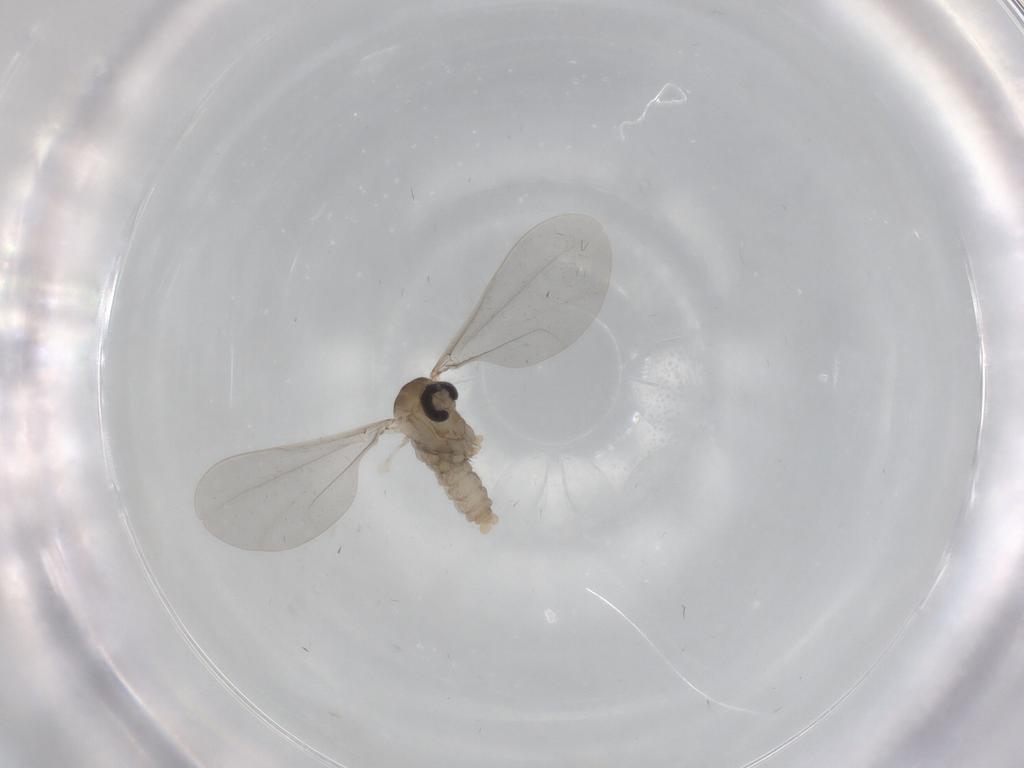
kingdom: Animalia
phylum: Arthropoda
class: Insecta
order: Diptera
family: Cecidomyiidae
